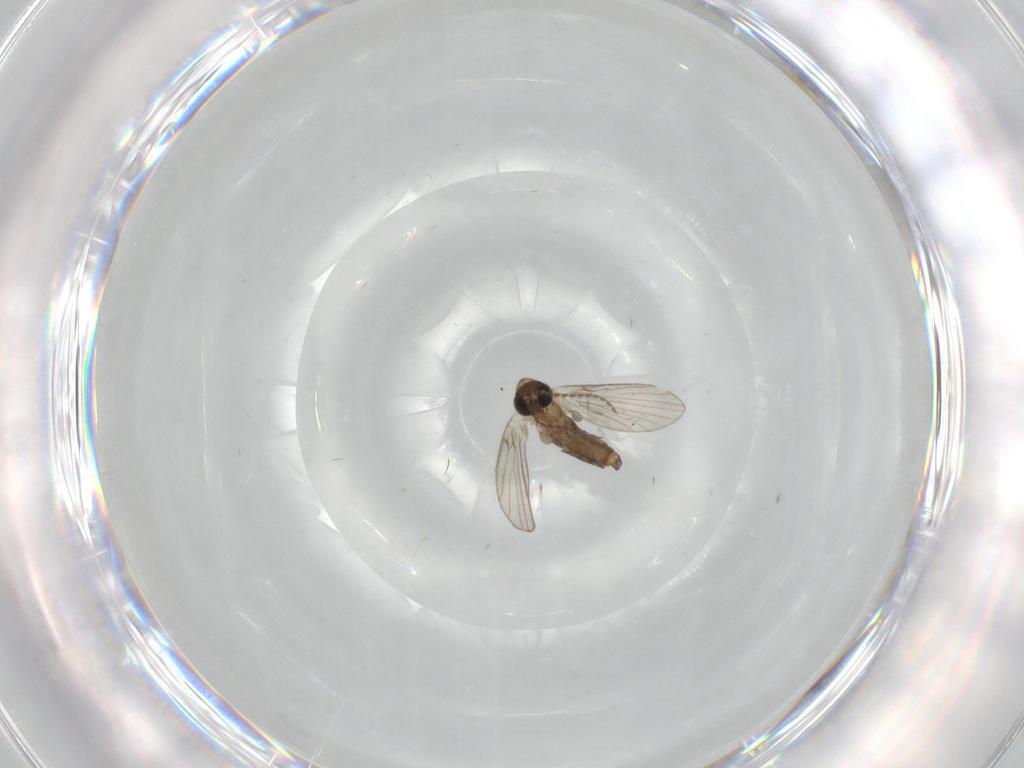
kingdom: Animalia
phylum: Arthropoda
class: Insecta
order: Diptera
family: Psychodidae
